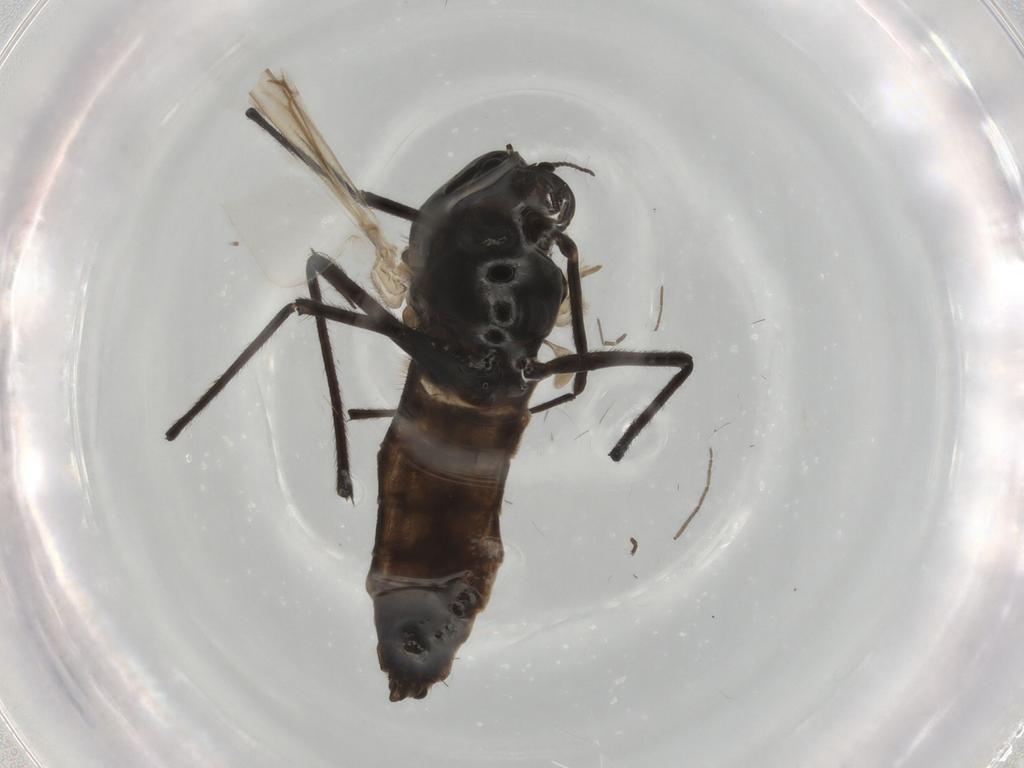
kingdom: Animalia
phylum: Arthropoda
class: Insecta
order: Diptera
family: Chironomidae
